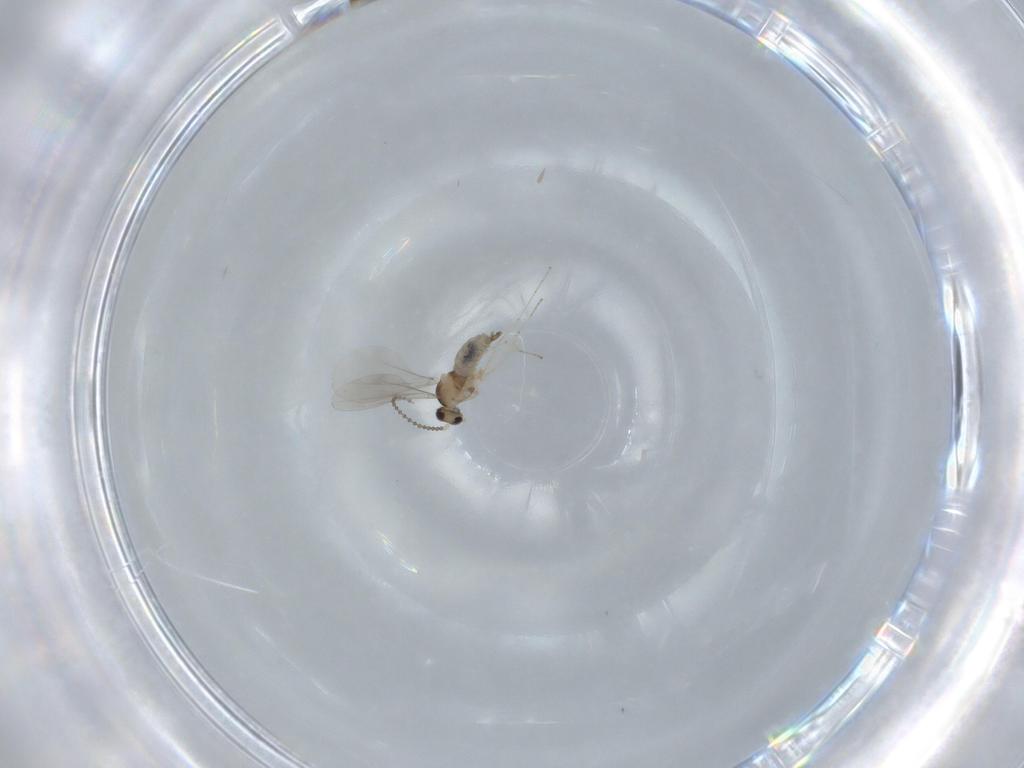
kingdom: Animalia
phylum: Arthropoda
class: Insecta
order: Diptera
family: Cecidomyiidae
